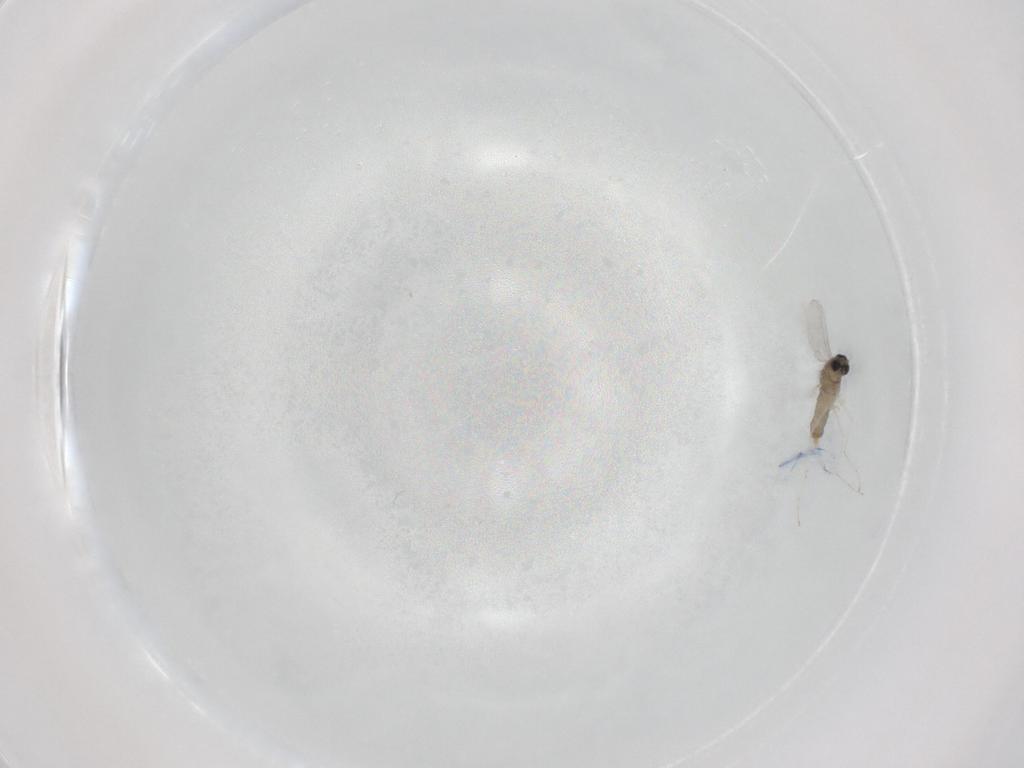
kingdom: Animalia
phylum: Arthropoda
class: Insecta
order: Diptera
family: Cecidomyiidae
